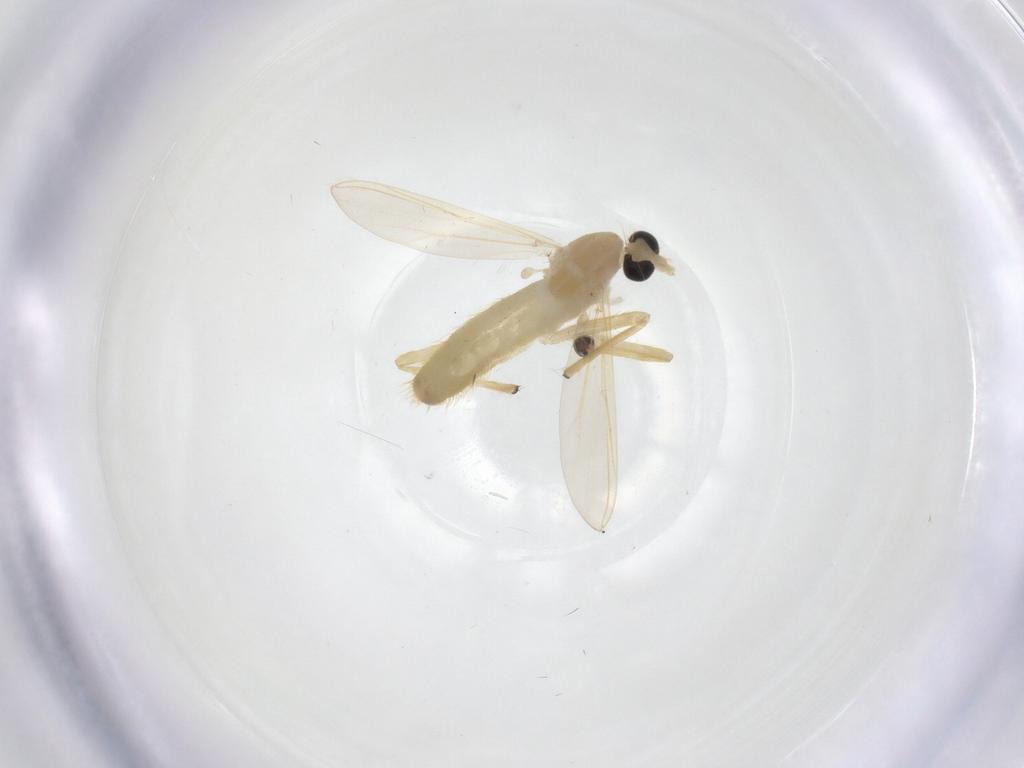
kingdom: Animalia
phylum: Arthropoda
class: Insecta
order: Diptera
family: Chironomidae
